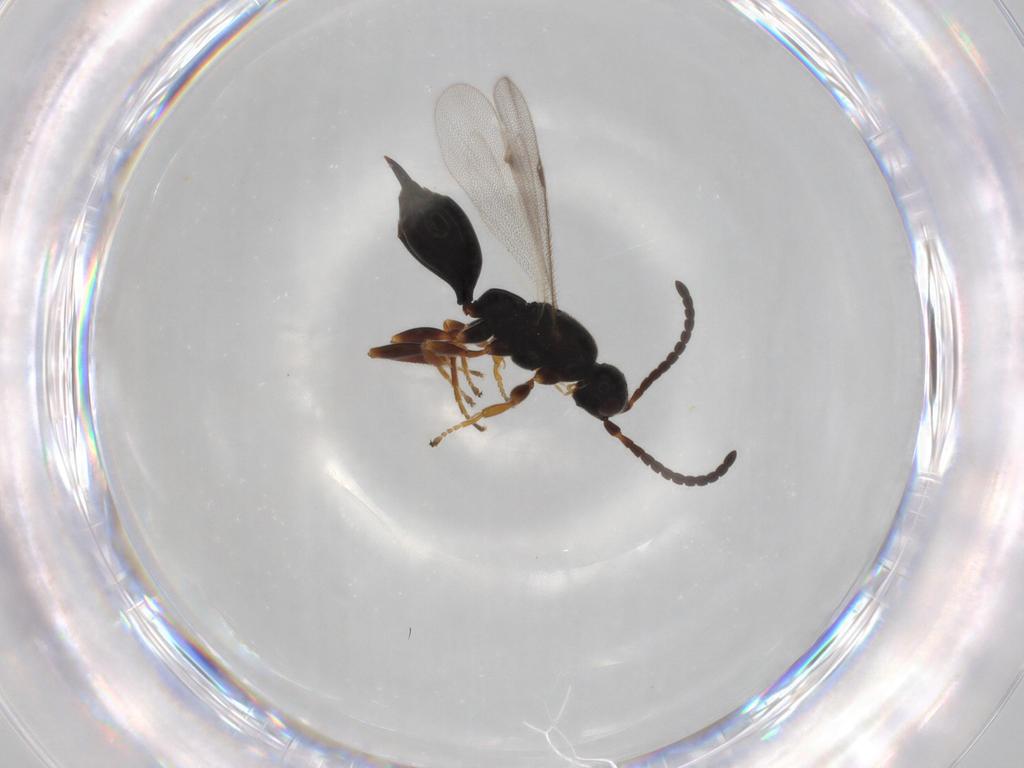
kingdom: Animalia
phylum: Arthropoda
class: Insecta
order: Hymenoptera
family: Proctotrupidae
